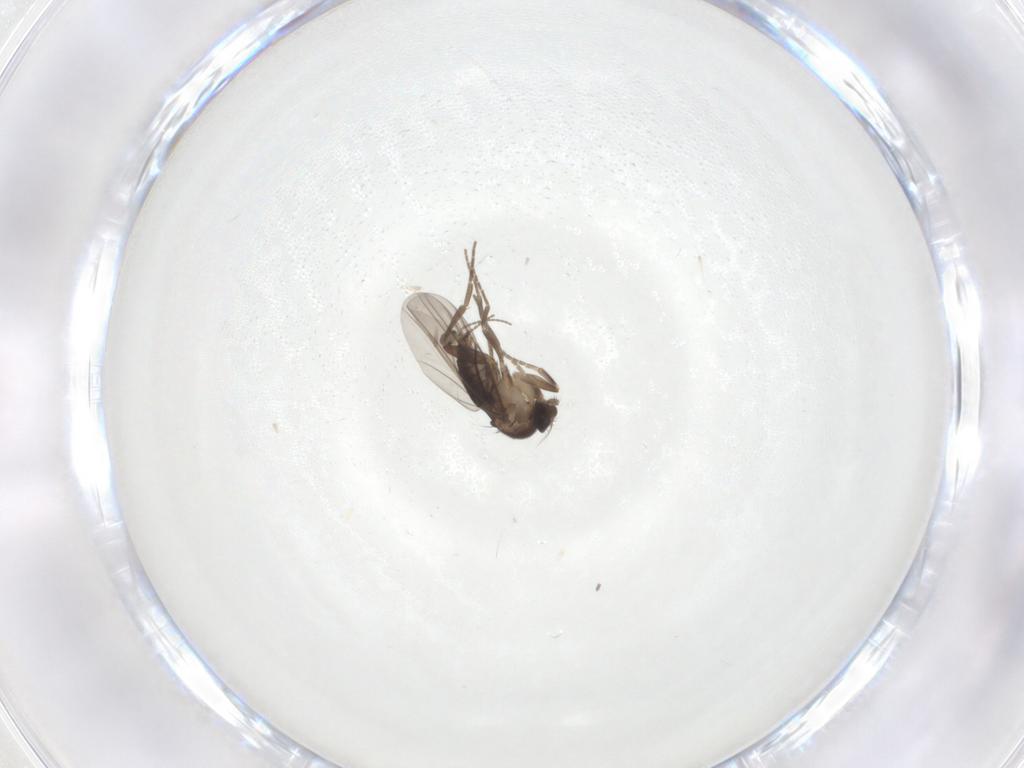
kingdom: Animalia
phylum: Arthropoda
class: Insecta
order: Diptera
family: Cecidomyiidae
